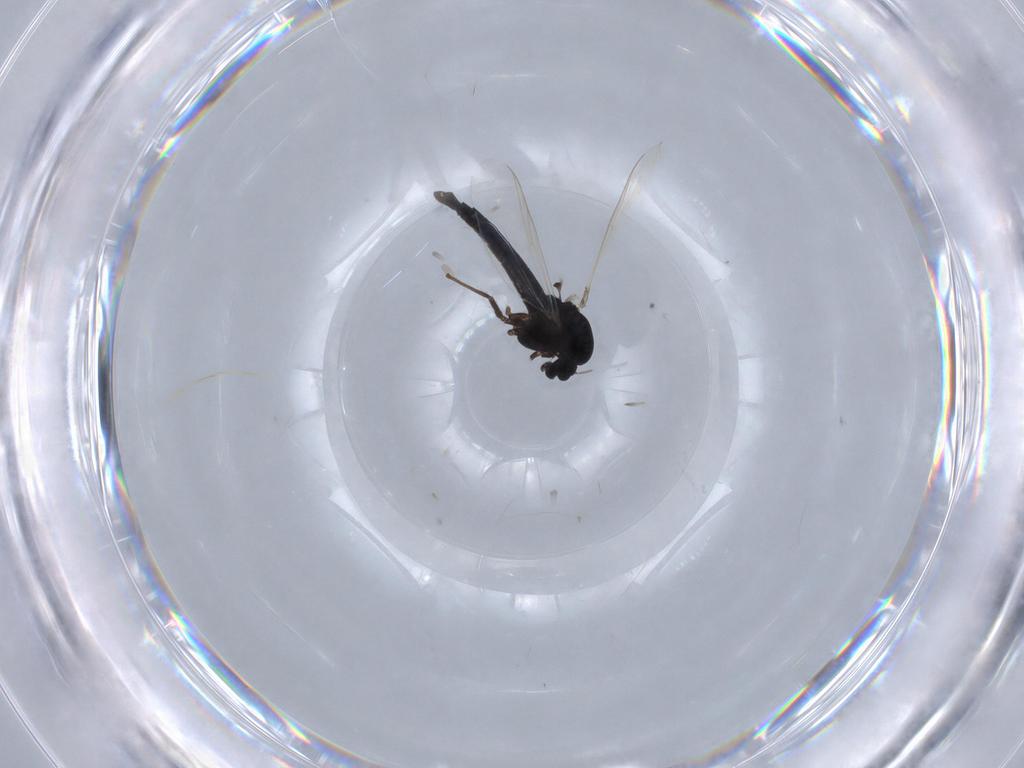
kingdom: Animalia
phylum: Arthropoda
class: Insecta
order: Diptera
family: Chironomidae
